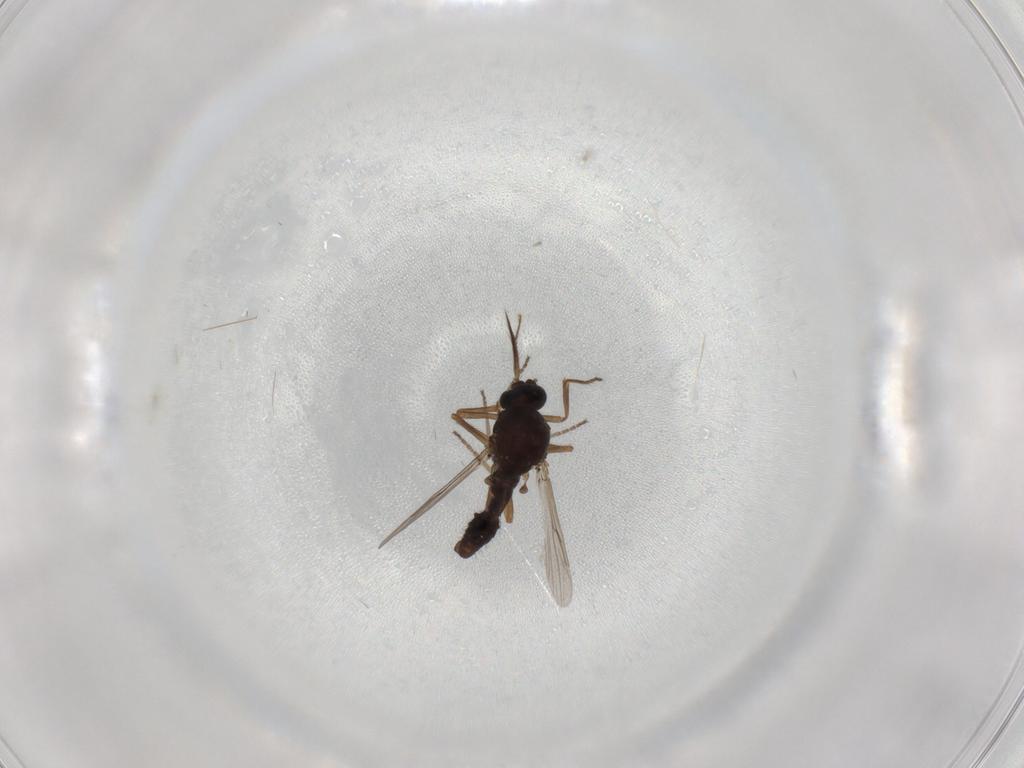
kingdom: Animalia
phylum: Arthropoda
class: Insecta
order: Diptera
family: Ceratopogonidae
